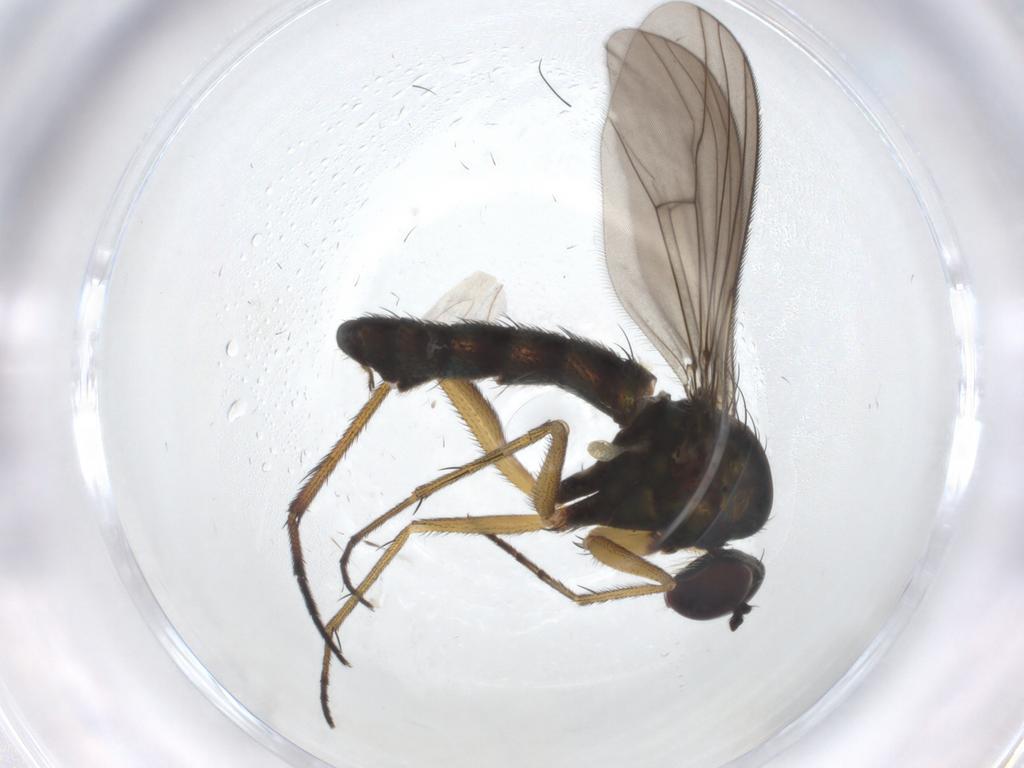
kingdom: Animalia
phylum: Arthropoda
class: Insecta
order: Diptera
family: Dolichopodidae
